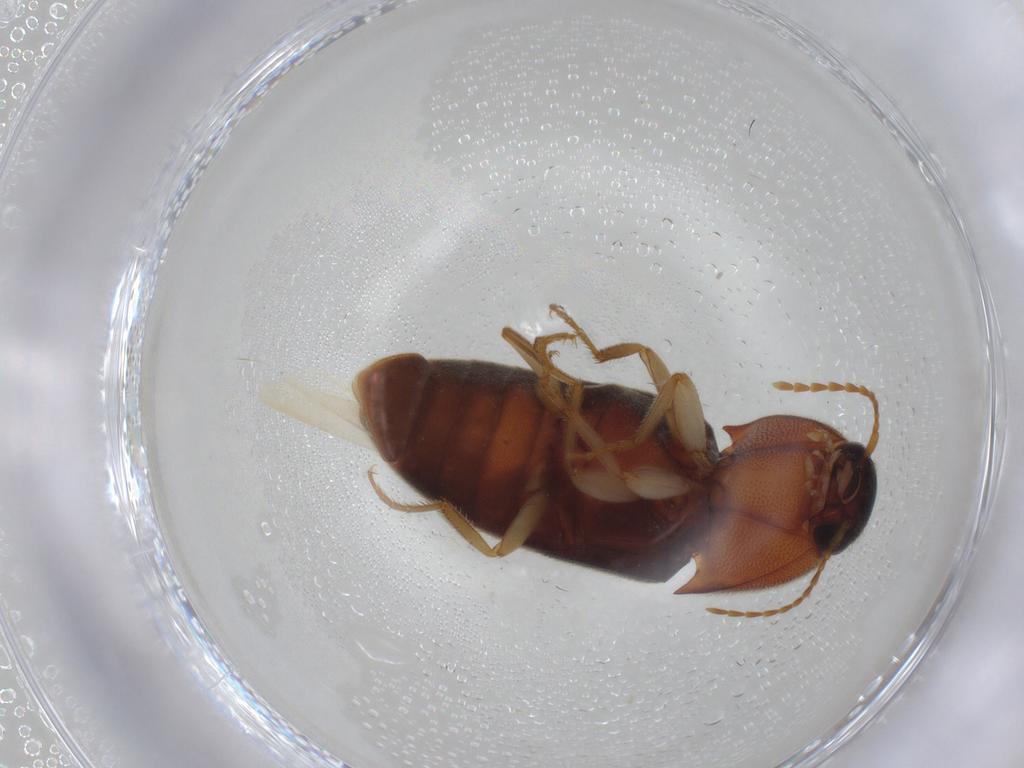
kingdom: Animalia
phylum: Arthropoda
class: Insecta
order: Coleoptera
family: Elateridae
